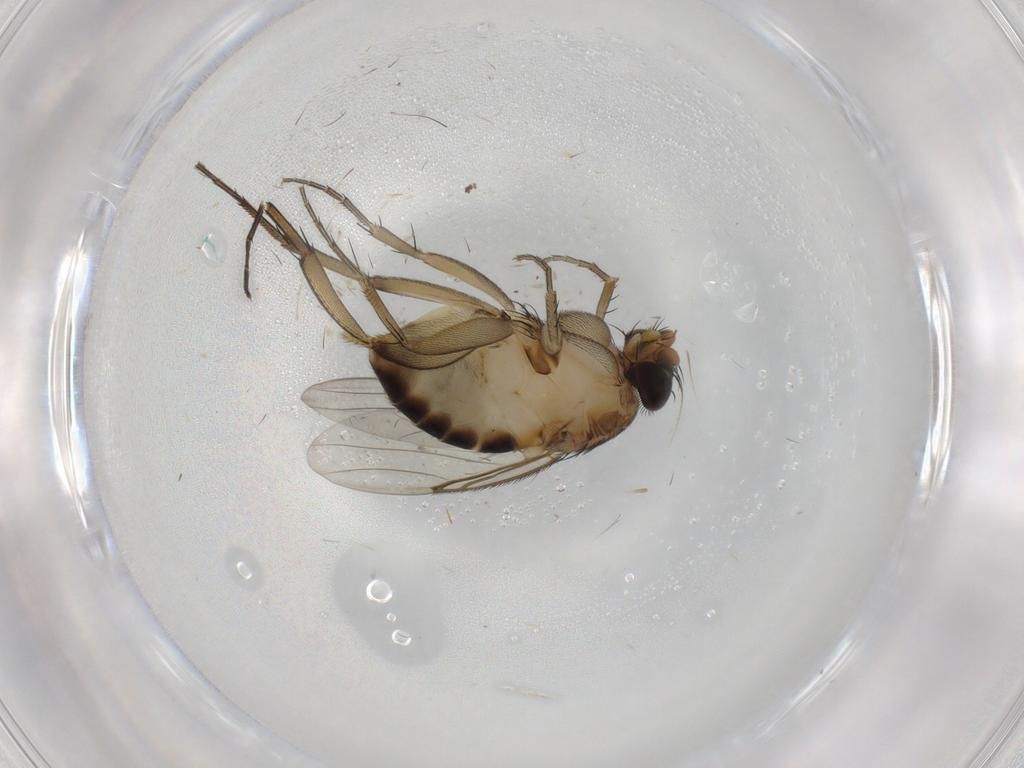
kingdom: Animalia
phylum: Arthropoda
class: Insecta
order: Diptera
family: Phoridae
